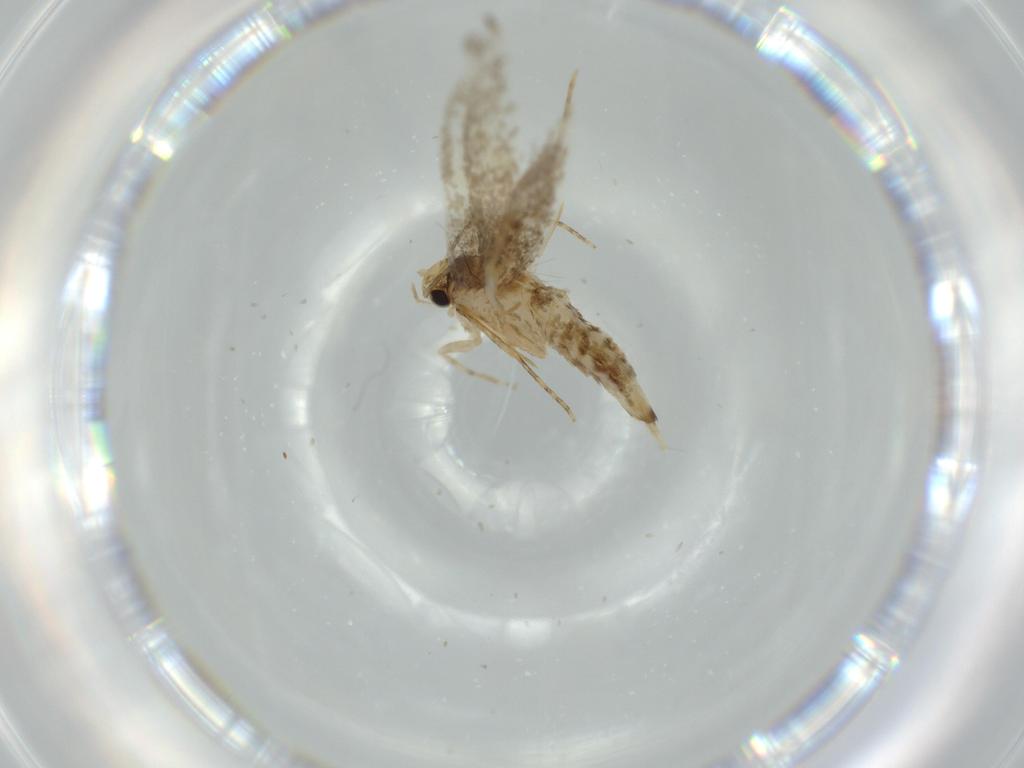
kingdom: Animalia
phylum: Arthropoda
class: Insecta
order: Lepidoptera
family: Tineidae
